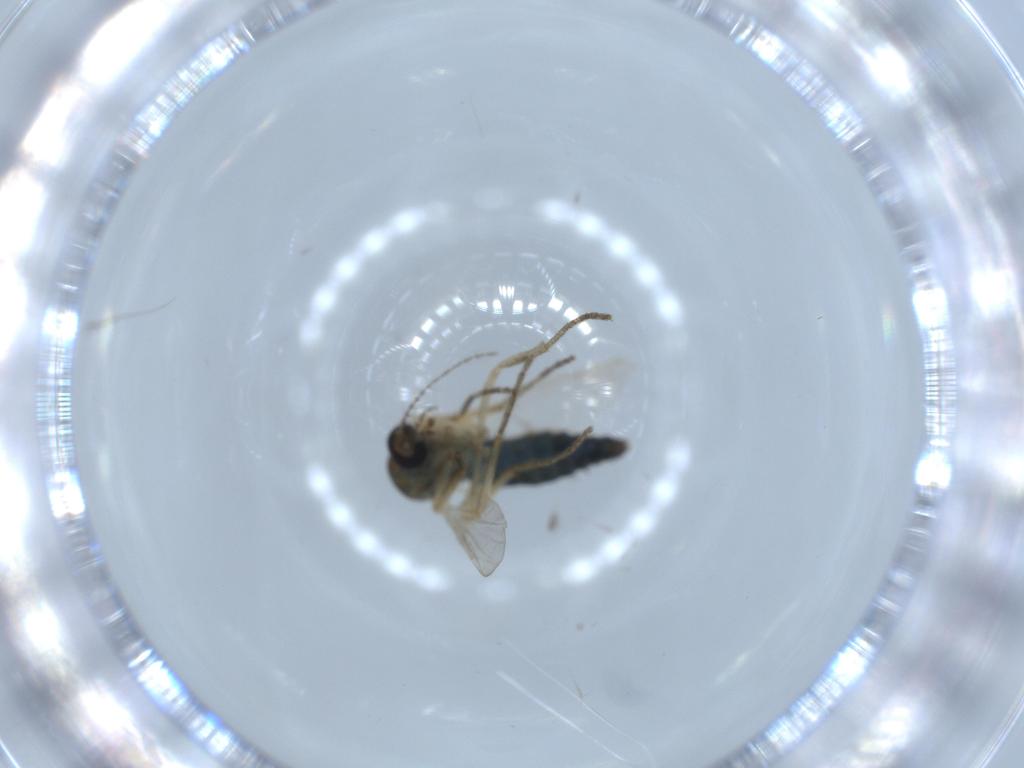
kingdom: Animalia
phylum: Arthropoda
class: Insecta
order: Diptera
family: Ceratopogonidae
